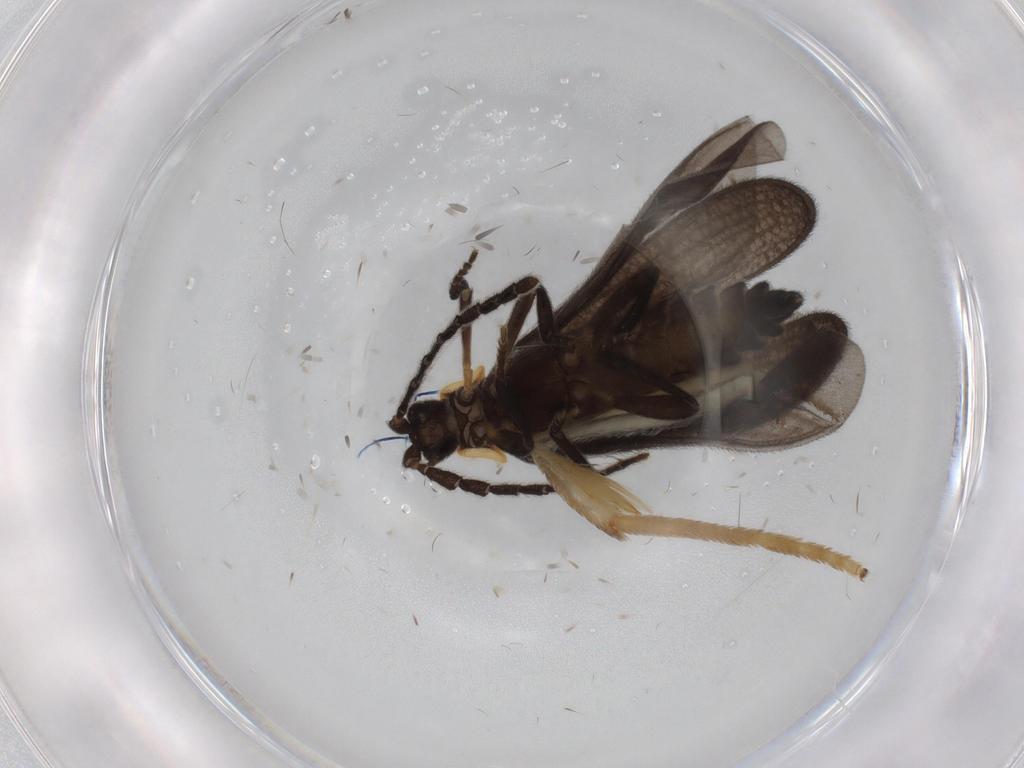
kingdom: Animalia
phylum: Arthropoda
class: Insecta
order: Coleoptera
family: Lycidae
